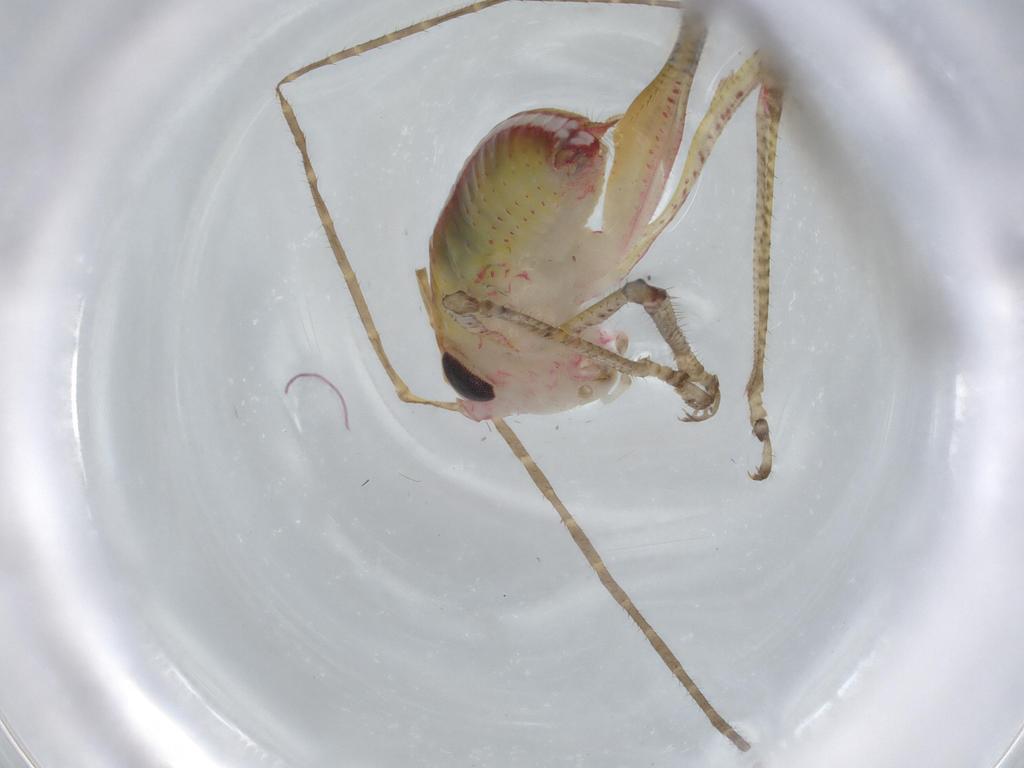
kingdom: Animalia
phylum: Arthropoda
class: Insecta
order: Orthoptera
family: Tettigoniidae
